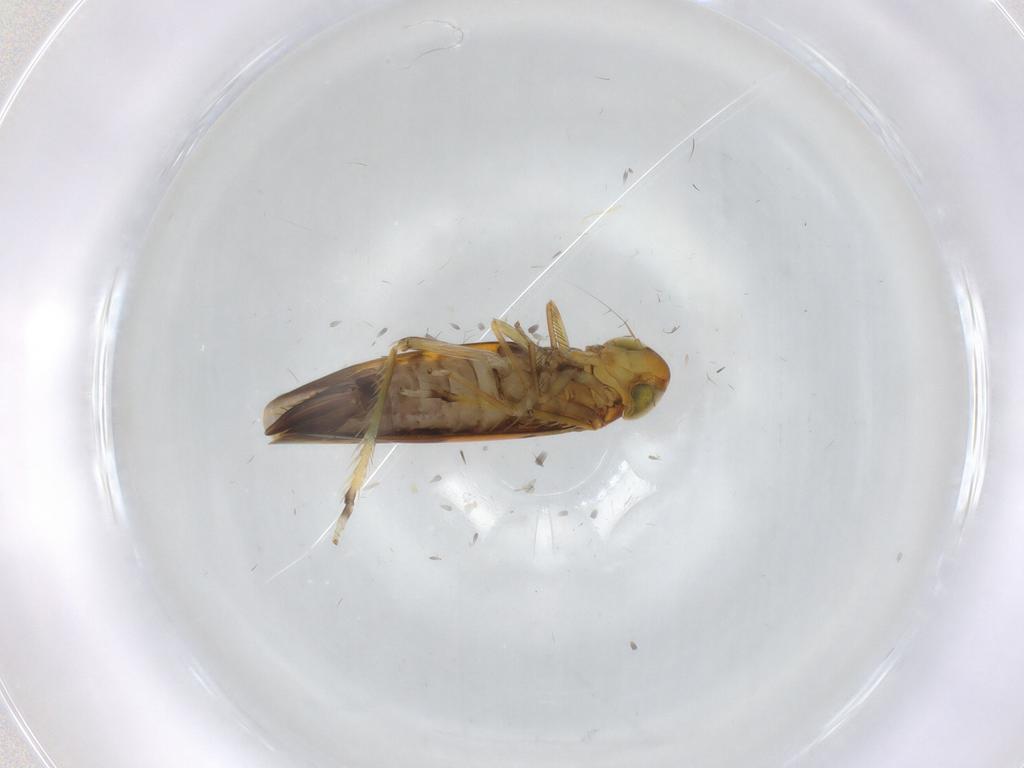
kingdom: Animalia
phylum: Arthropoda
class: Insecta
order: Hemiptera
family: Cicadellidae
